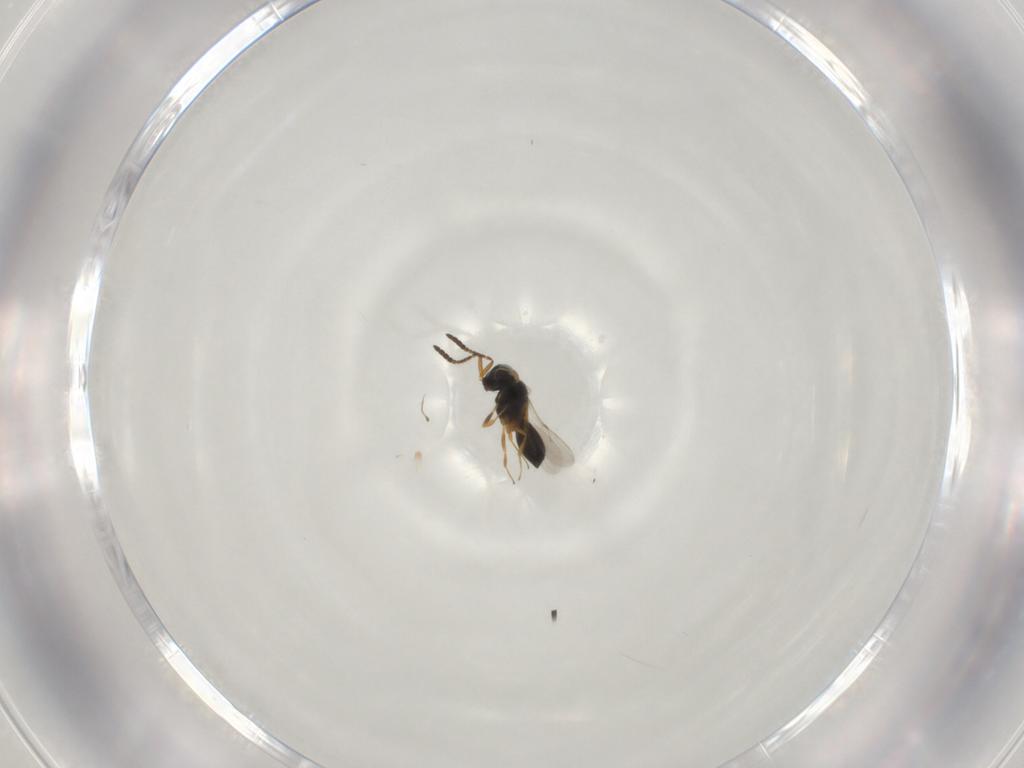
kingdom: Animalia
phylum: Arthropoda
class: Insecta
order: Hymenoptera
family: Scelionidae
